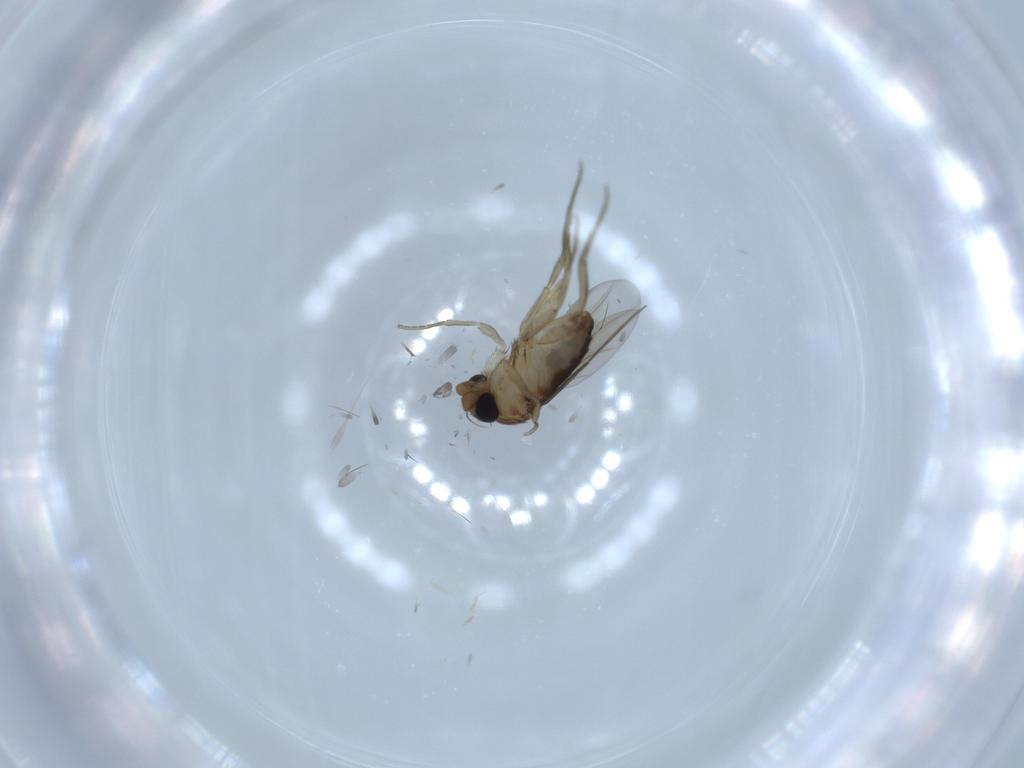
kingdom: Animalia
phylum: Arthropoda
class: Insecta
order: Diptera
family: Phoridae
